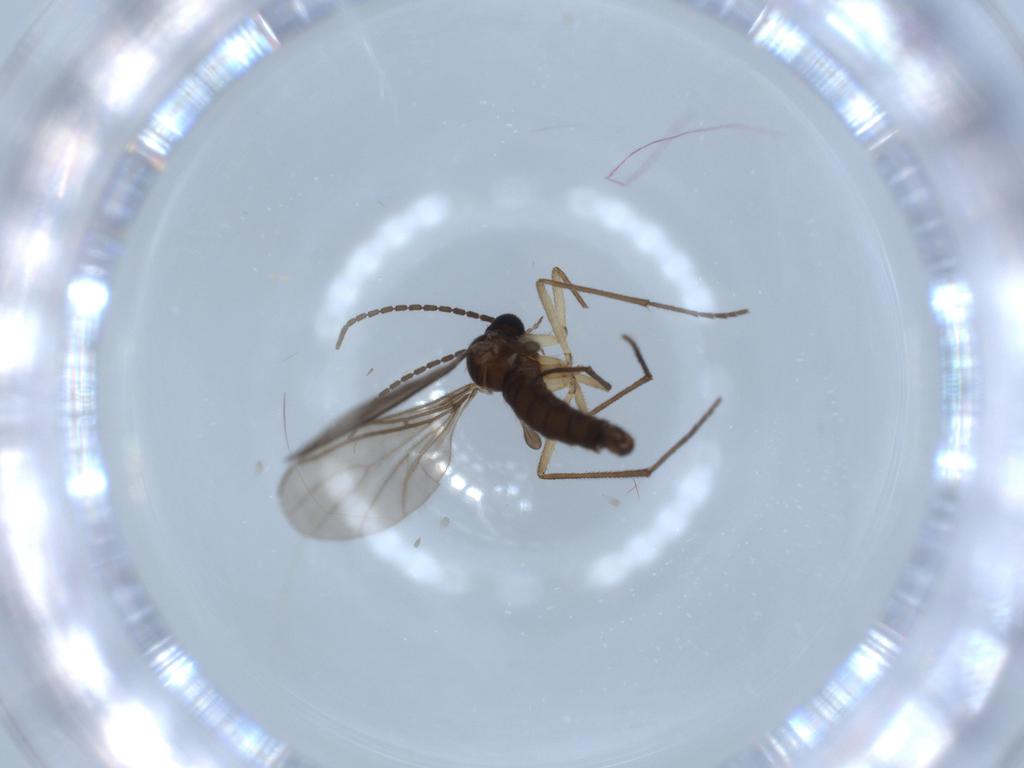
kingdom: Animalia
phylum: Arthropoda
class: Insecta
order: Diptera
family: Sciaridae
